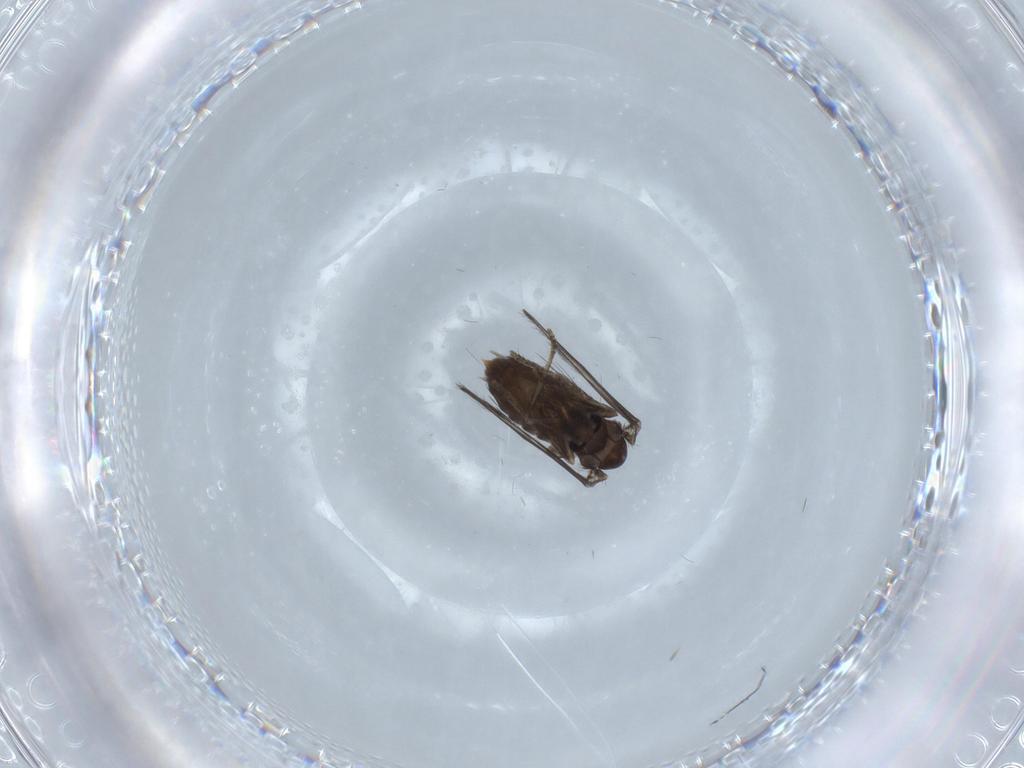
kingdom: Animalia
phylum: Arthropoda
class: Insecta
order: Diptera
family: Psychodidae
